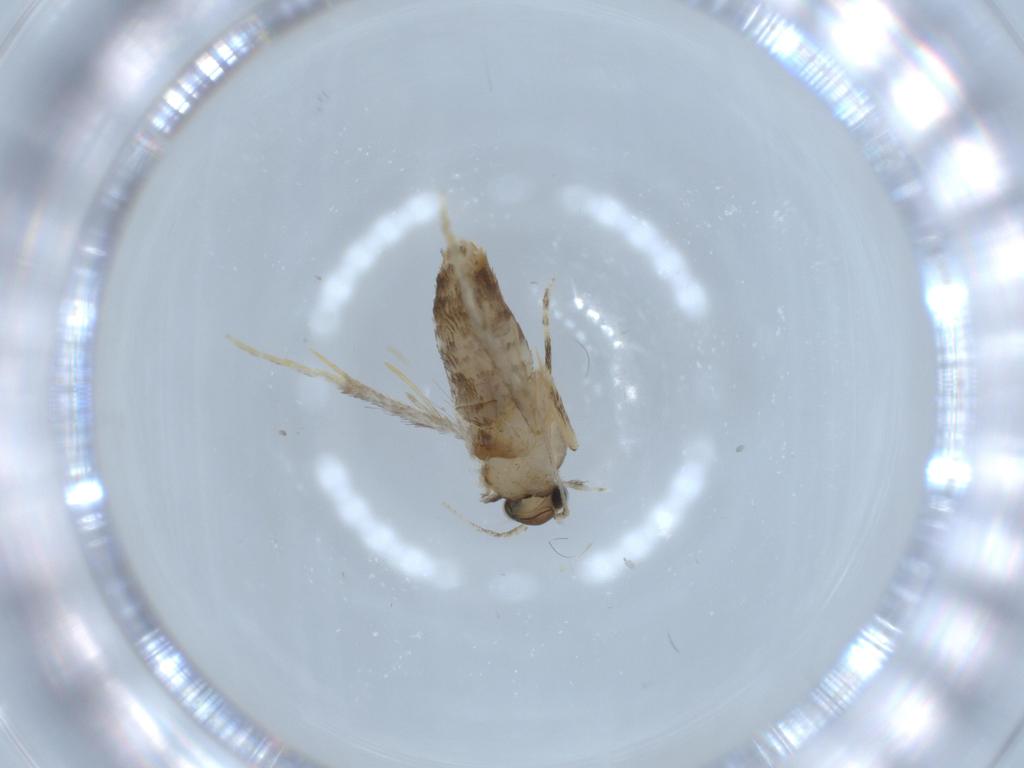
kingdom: Animalia
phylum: Arthropoda
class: Insecta
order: Lepidoptera
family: Tineidae
